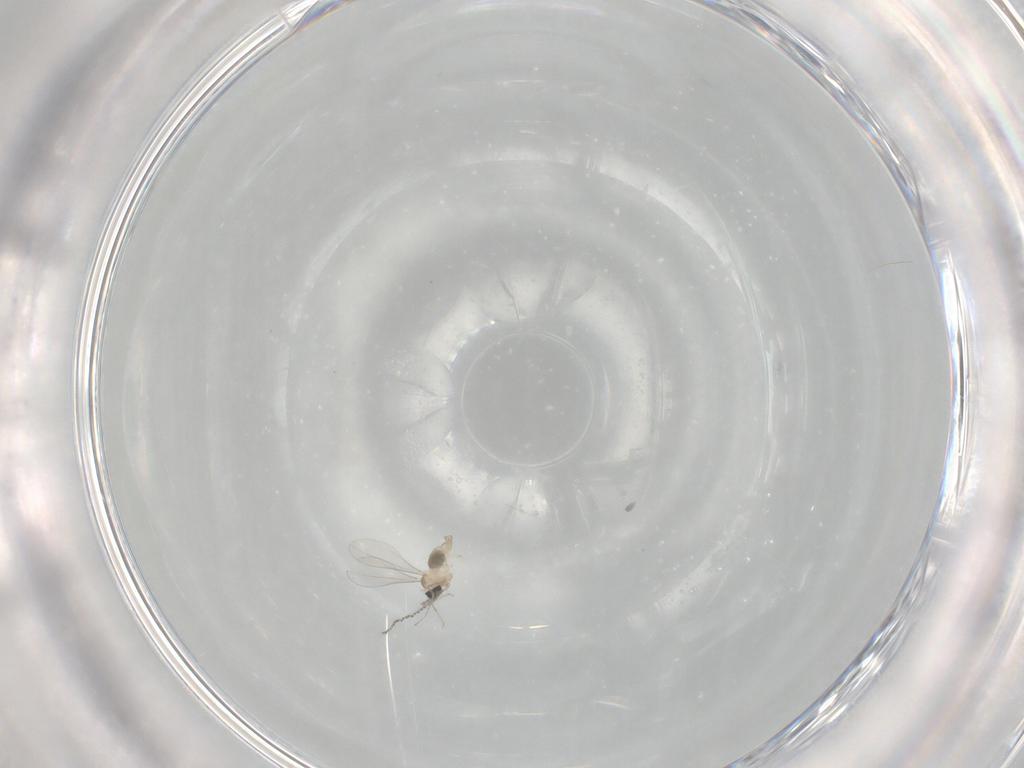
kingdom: Animalia
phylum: Arthropoda
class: Insecta
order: Diptera
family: Cecidomyiidae
